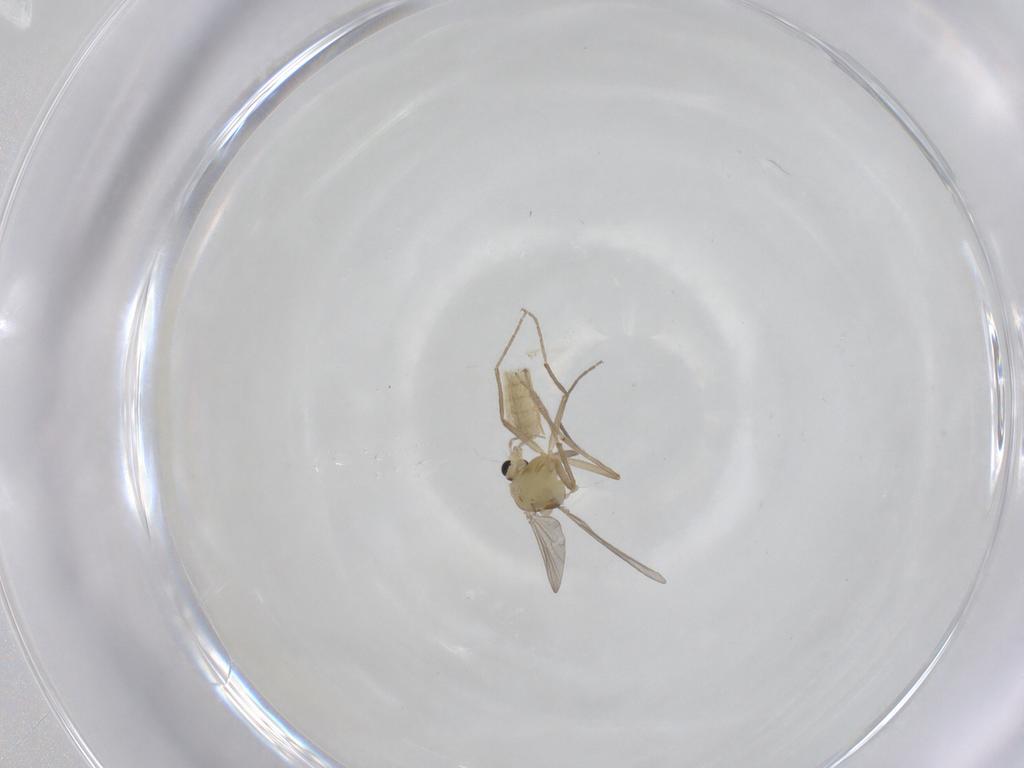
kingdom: Animalia
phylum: Arthropoda
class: Insecta
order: Diptera
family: Chironomidae
